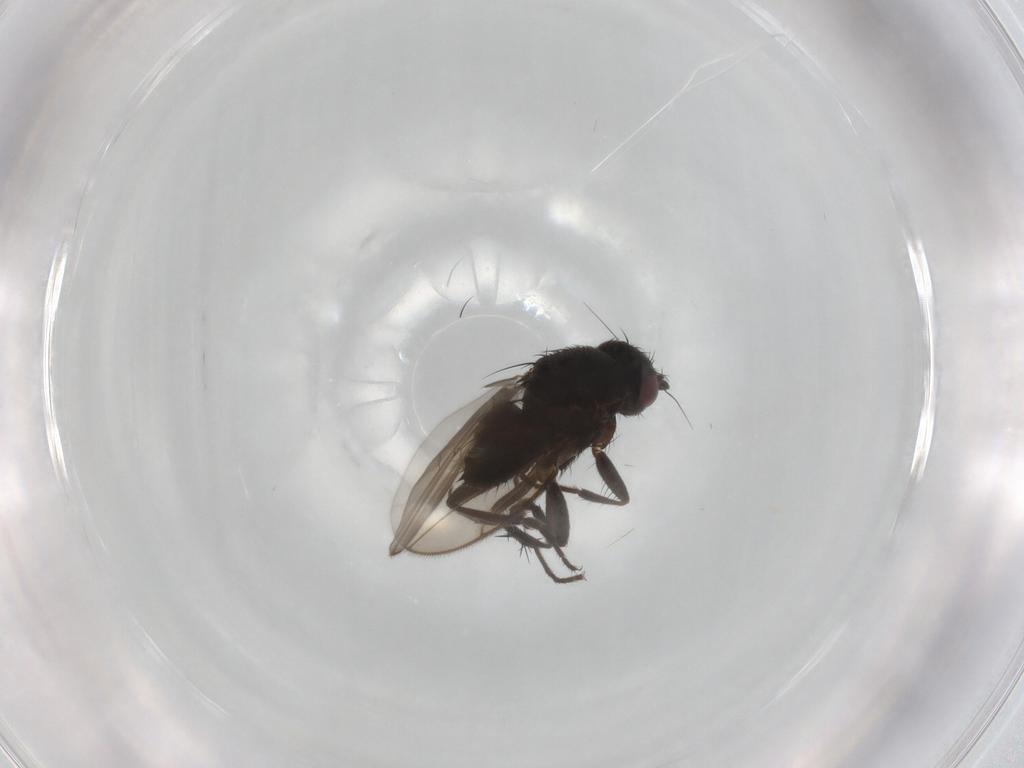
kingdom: Animalia
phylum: Arthropoda
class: Insecta
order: Diptera
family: Sphaeroceridae
